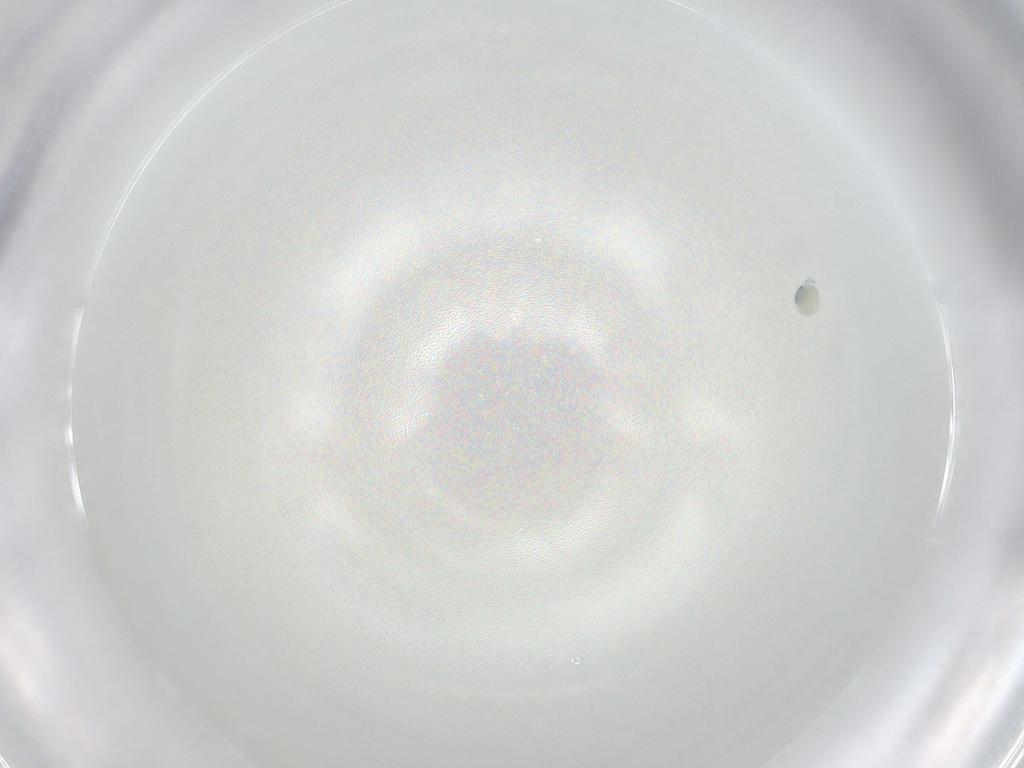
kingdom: Animalia
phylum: Arthropoda
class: Arachnida
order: Trombidiformes
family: Arrenuridae
